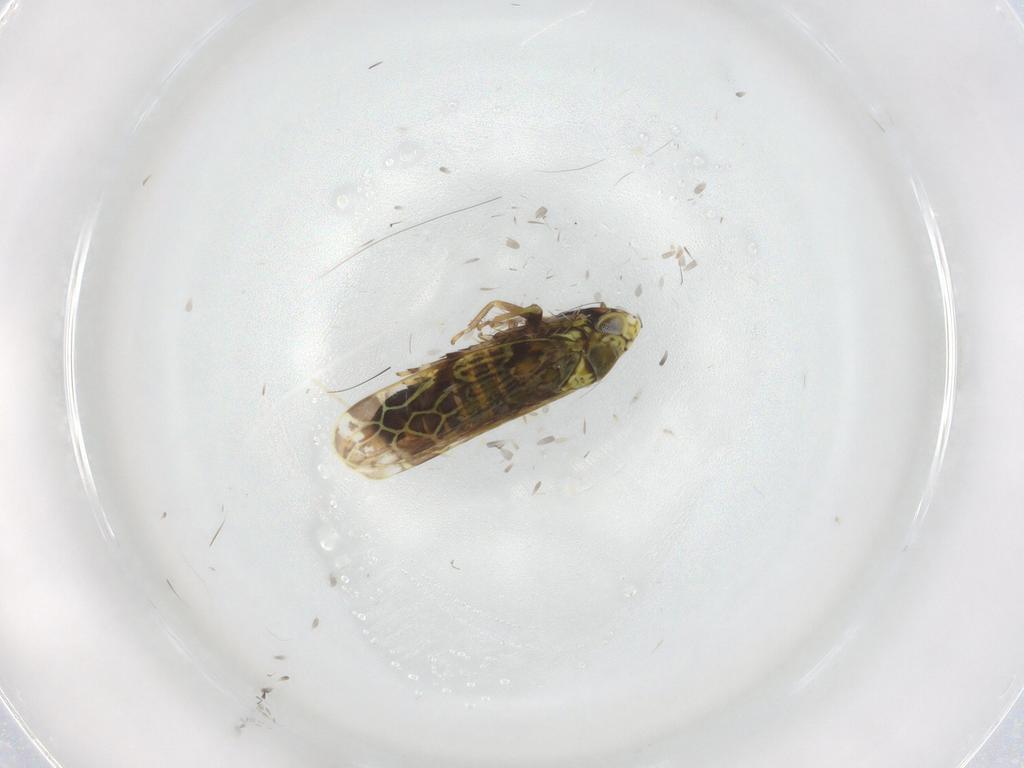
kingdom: Animalia
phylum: Arthropoda
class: Insecta
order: Hemiptera
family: Cicadellidae
